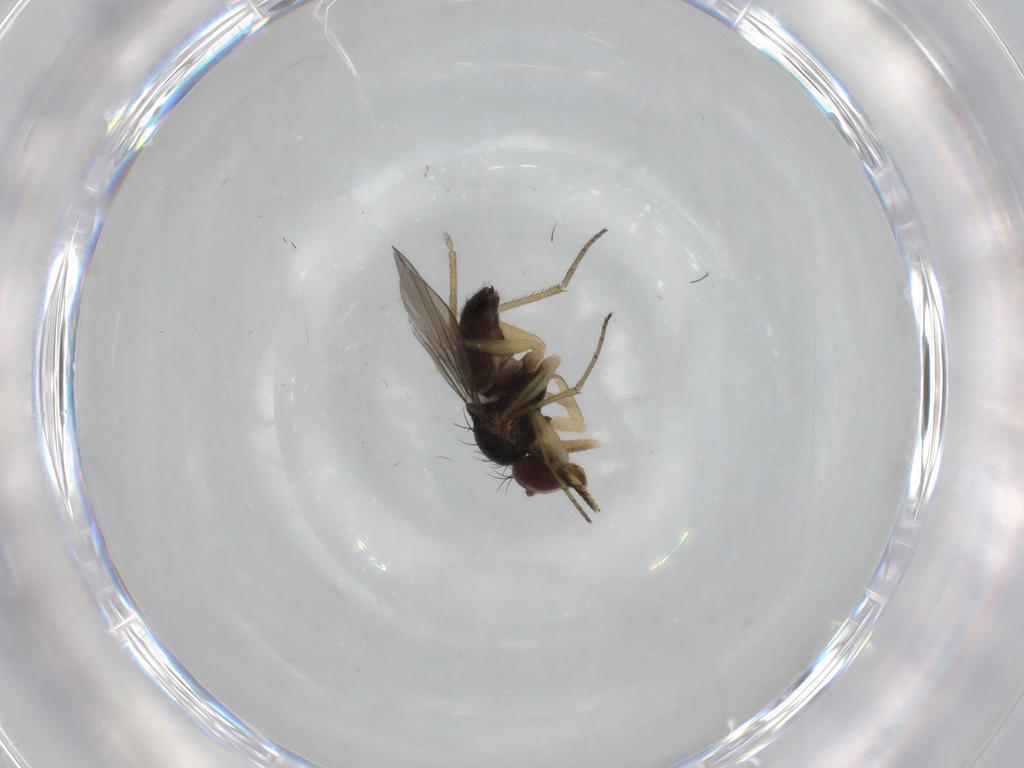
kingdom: Animalia
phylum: Arthropoda
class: Insecta
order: Diptera
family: Dolichopodidae
